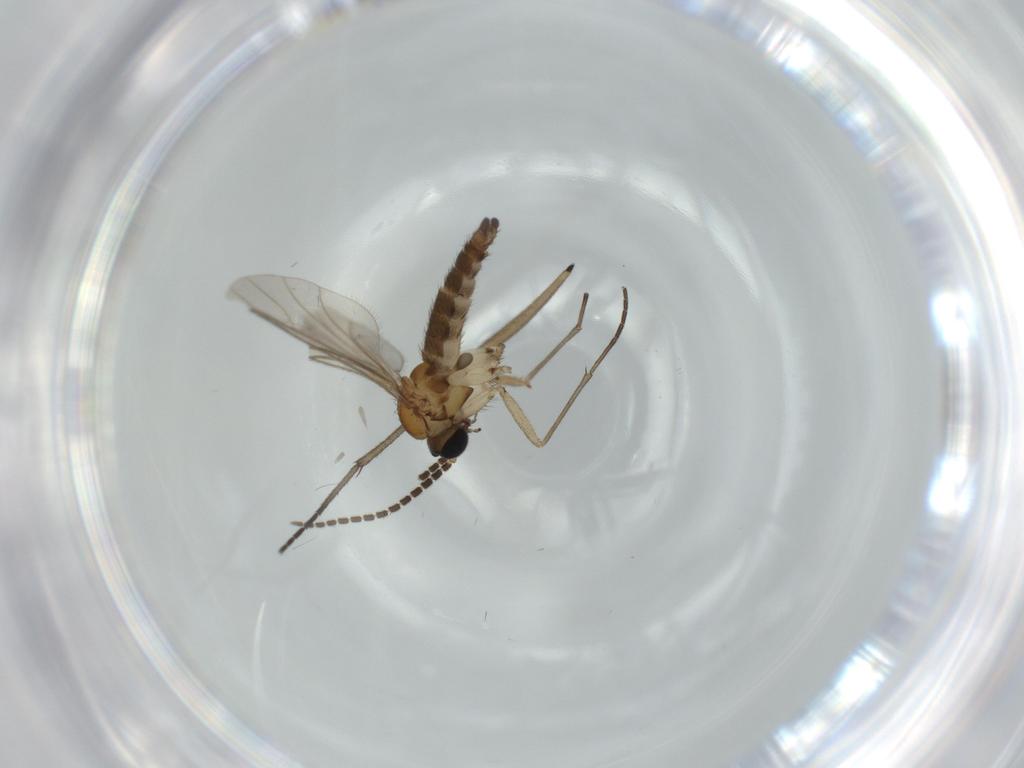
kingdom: Animalia
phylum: Arthropoda
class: Insecta
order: Diptera
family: Sciaridae
